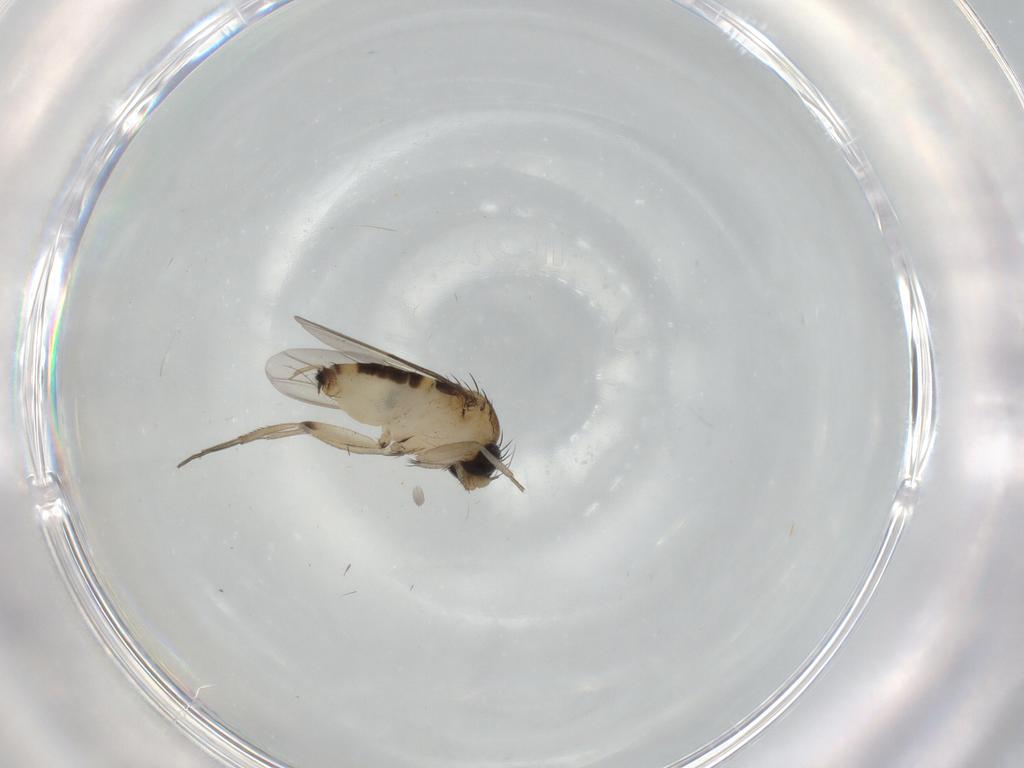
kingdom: Animalia
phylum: Arthropoda
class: Insecta
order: Diptera
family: Phoridae
